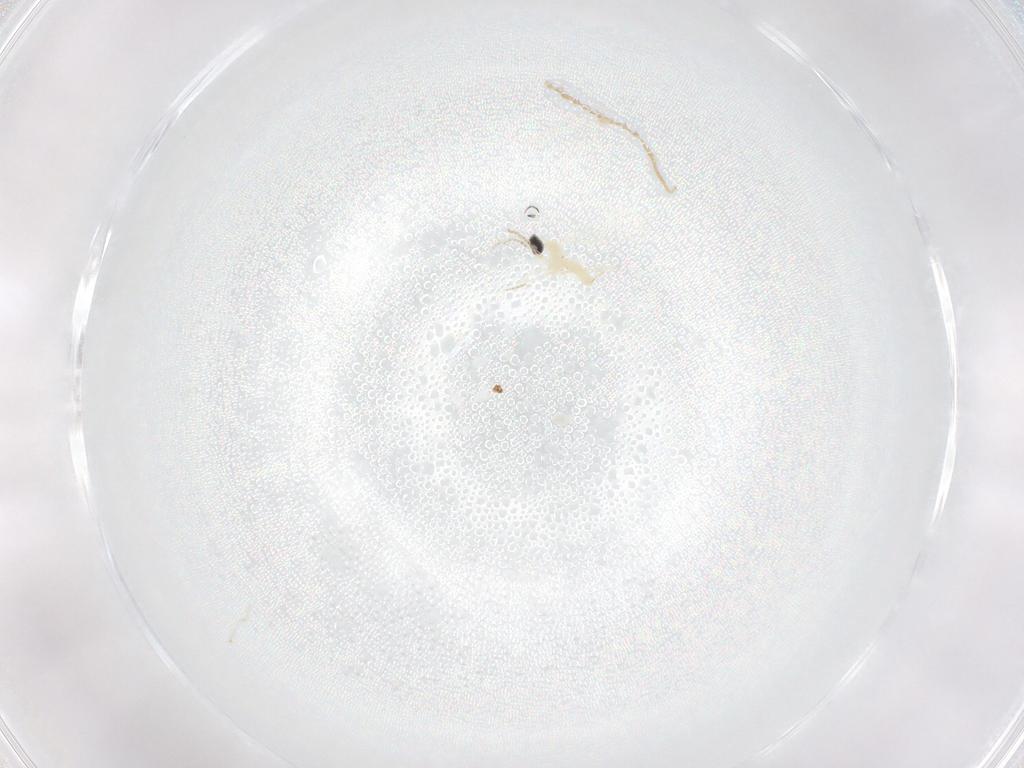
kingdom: Animalia
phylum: Arthropoda
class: Insecta
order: Diptera
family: Cecidomyiidae
